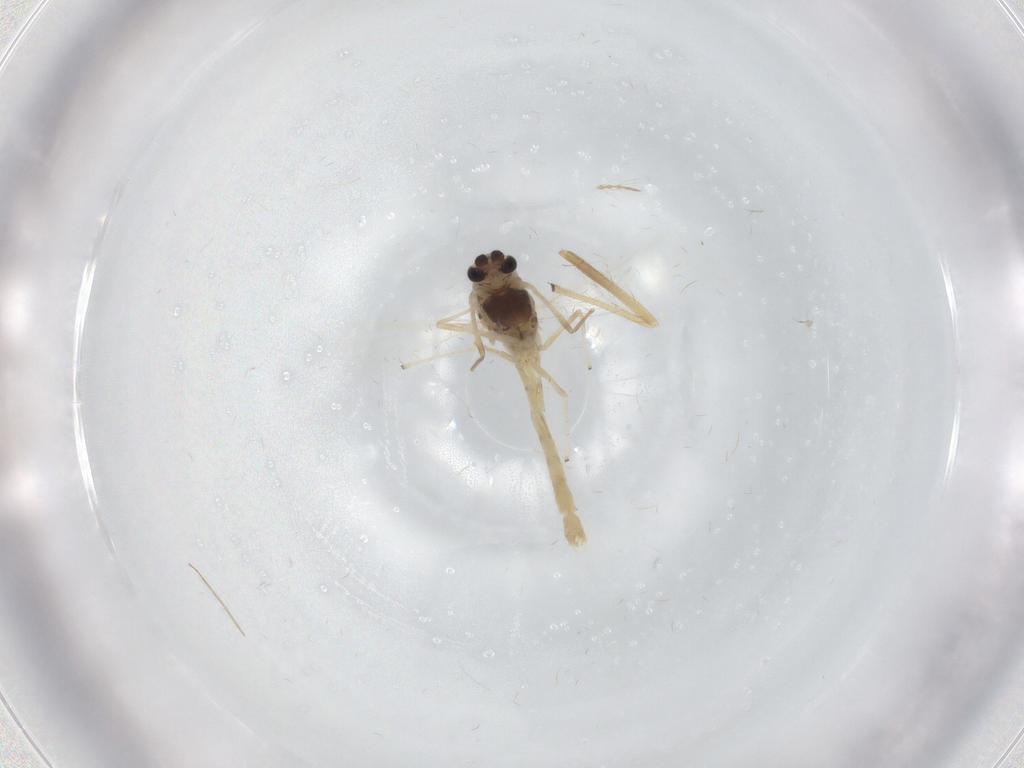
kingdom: Animalia
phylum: Arthropoda
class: Insecta
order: Diptera
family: Chironomidae
